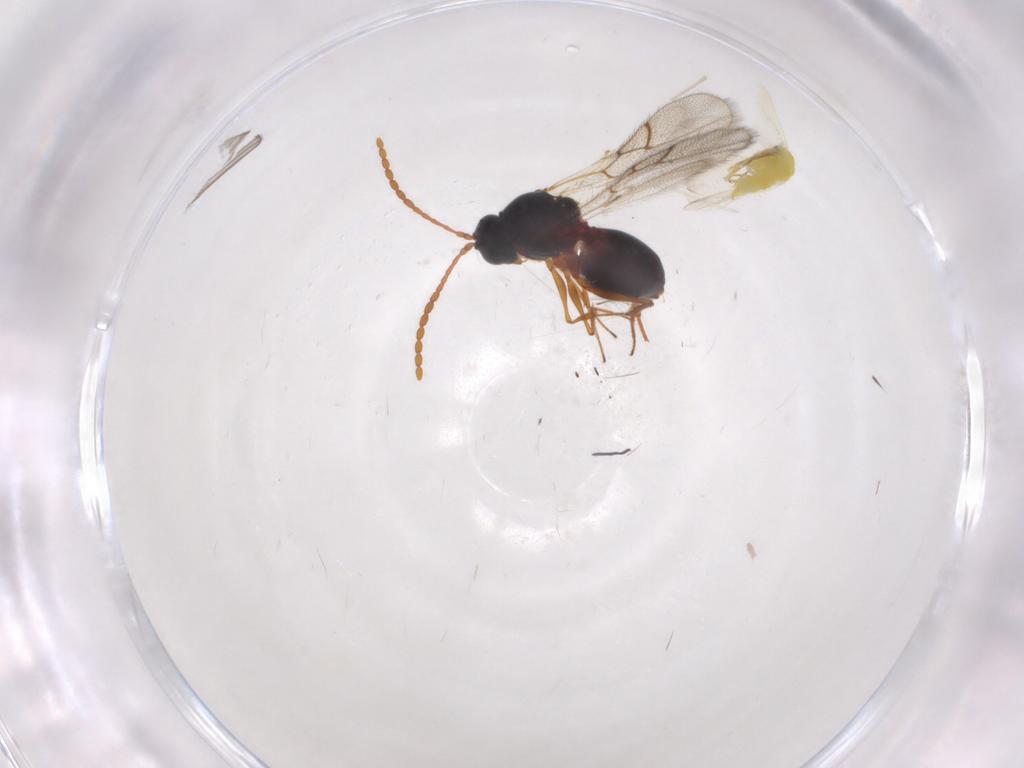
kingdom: Animalia
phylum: Arthropoda
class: Insecta
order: Hymenoptera
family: Figitidae
